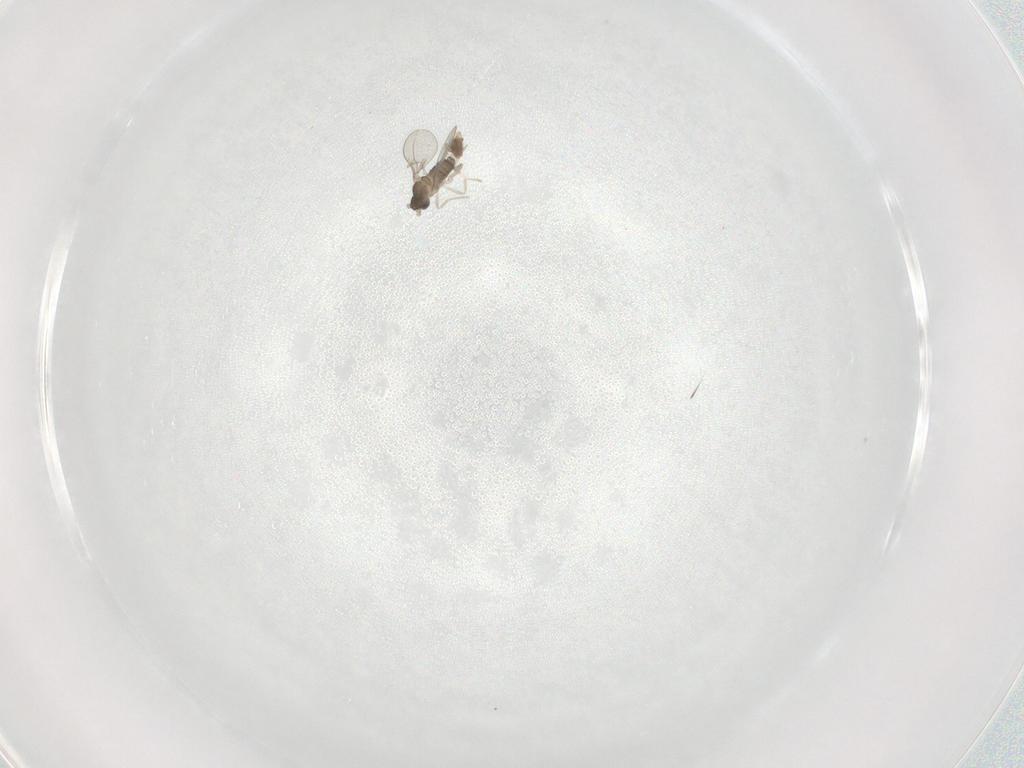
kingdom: Animalia
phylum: Arthropoda
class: Insecta
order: Diptera
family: Cecidomyiidae
